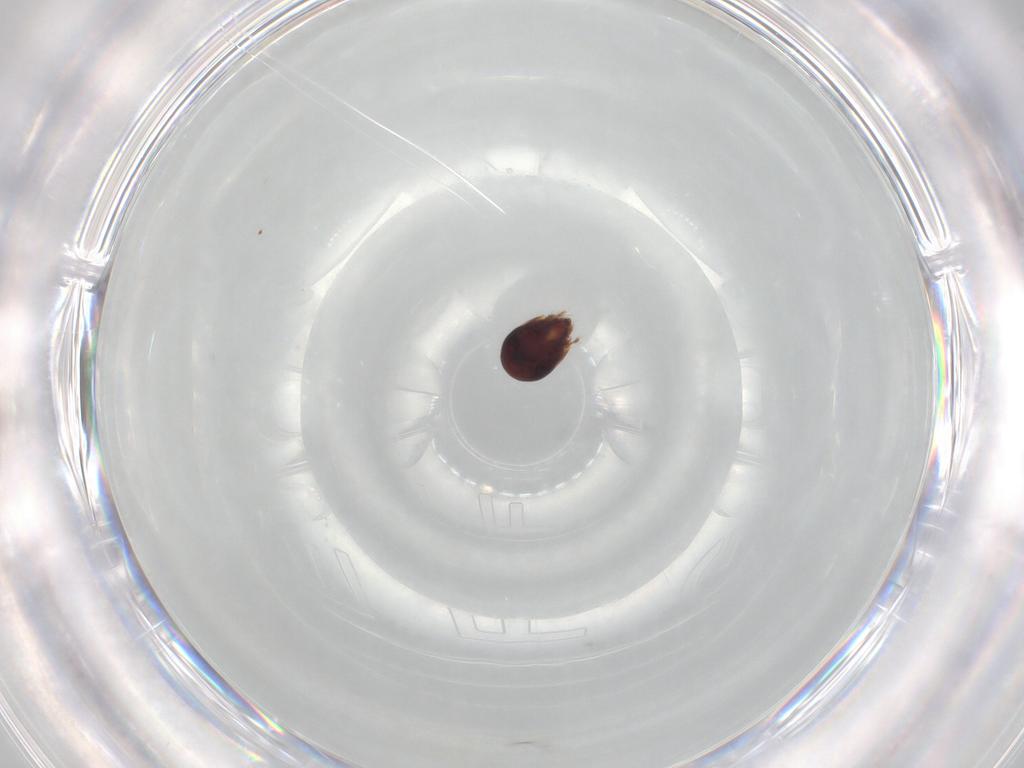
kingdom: Animalia
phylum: Arthropoda
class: Arachnida
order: Sarcoptiformes
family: Humerobatidae
